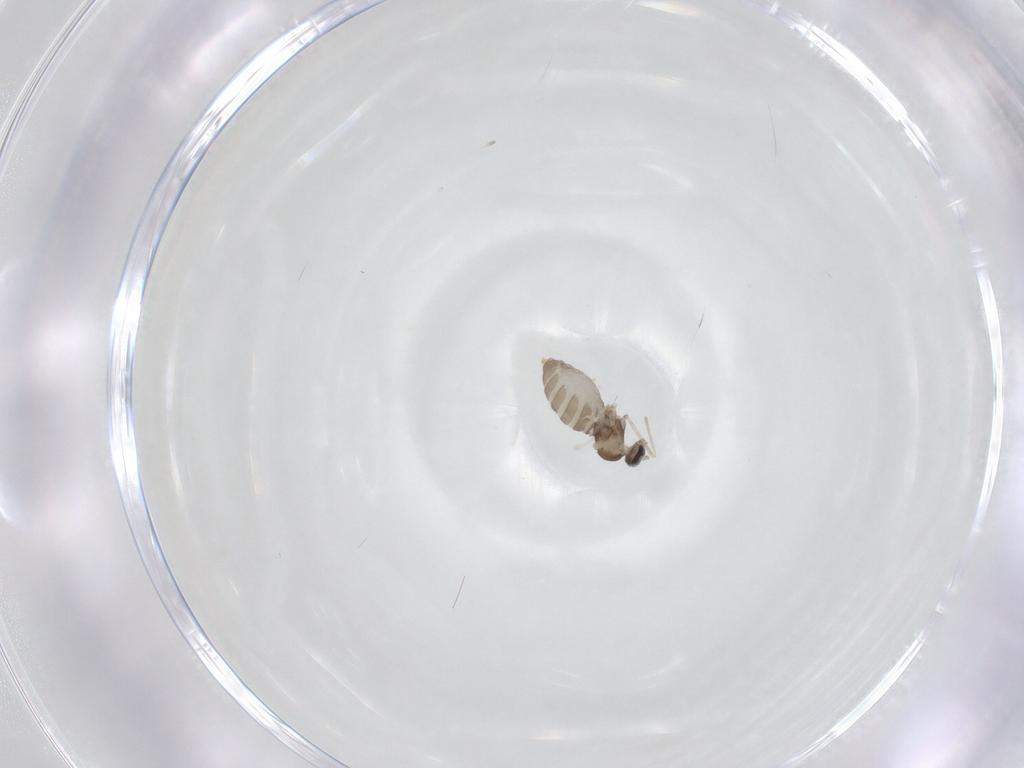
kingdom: Animalia
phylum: Arthropoda
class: Insecta
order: Diptera
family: Cecidomyiidae
